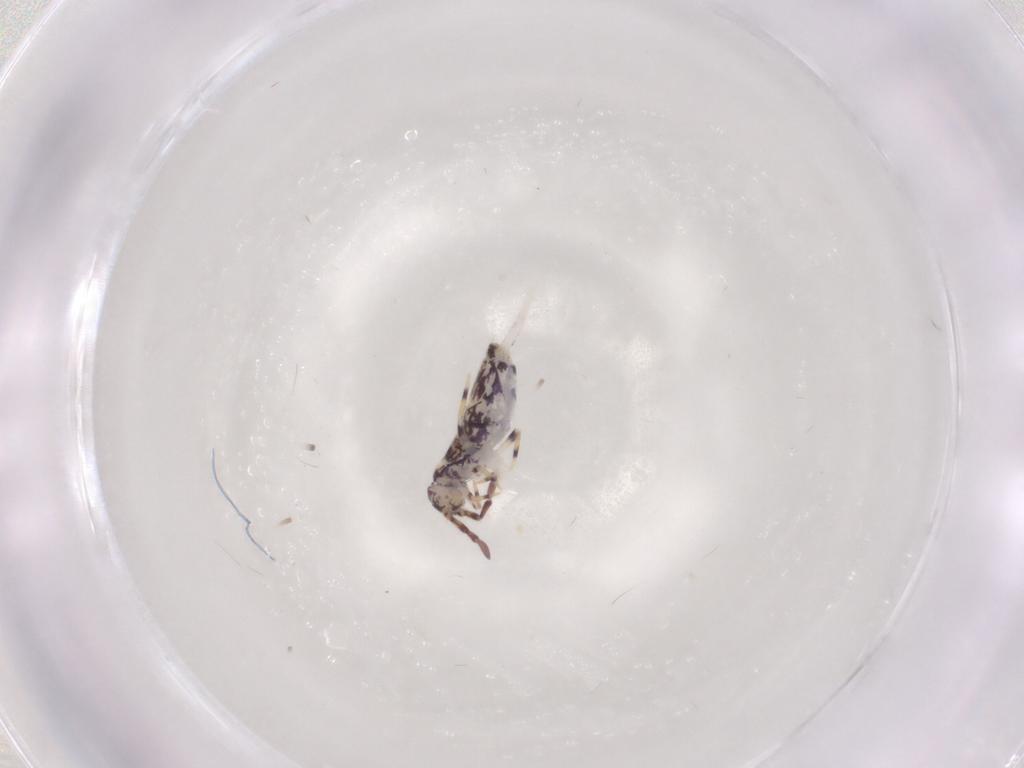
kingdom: Animalia
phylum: Arthropoda
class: Collembola
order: Entomobryomorpha
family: Entomobryidae
